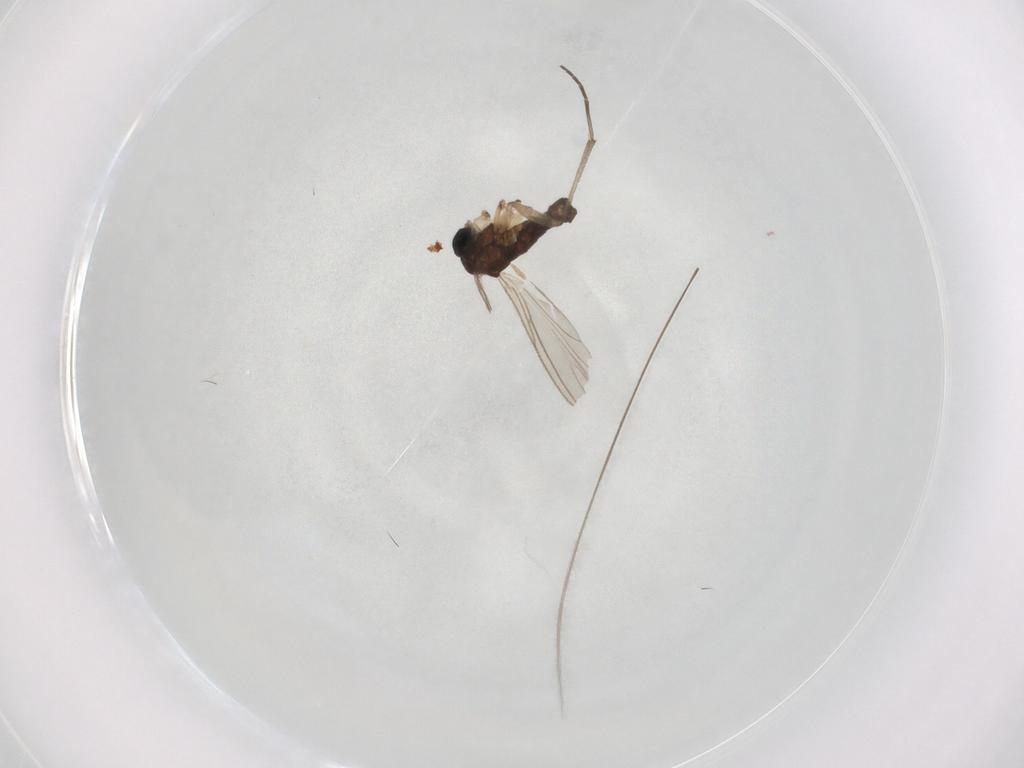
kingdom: Animalia
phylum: Arthropoda
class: Insecta
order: Diptera
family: Sciaridae
